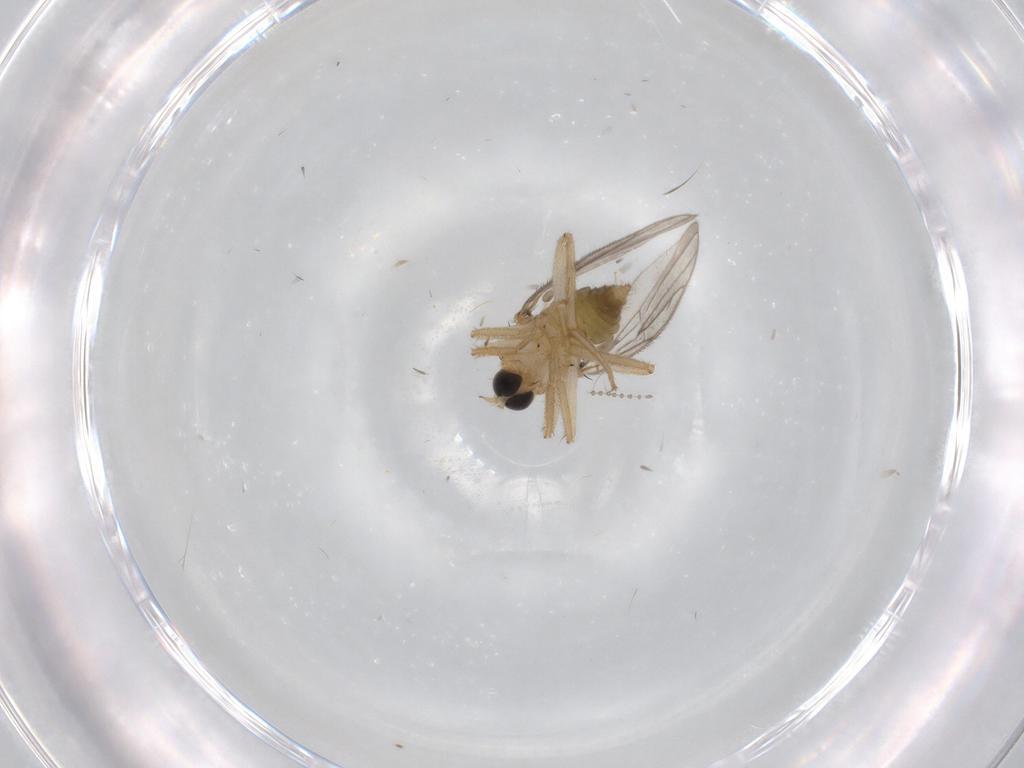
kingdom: Animalia
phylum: Arthropoda
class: Insecta
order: Diptera
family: Hybotidae
